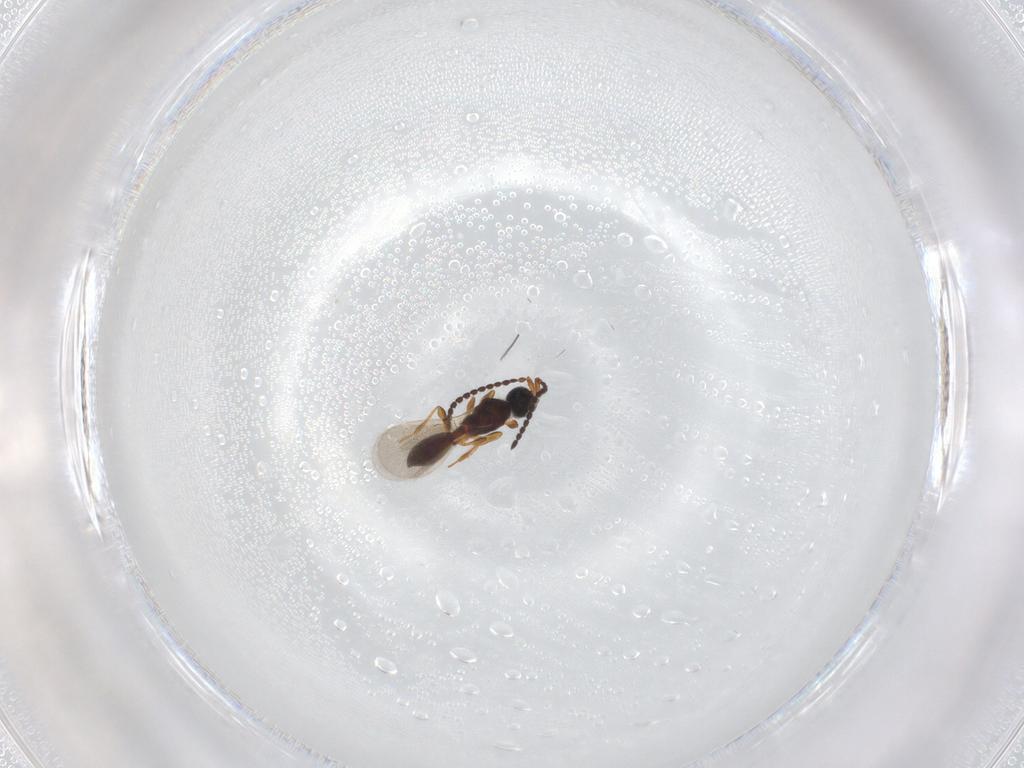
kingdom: Animalia
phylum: Arthropoda
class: Insecta
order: Hymenoptera
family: Diapriidae
